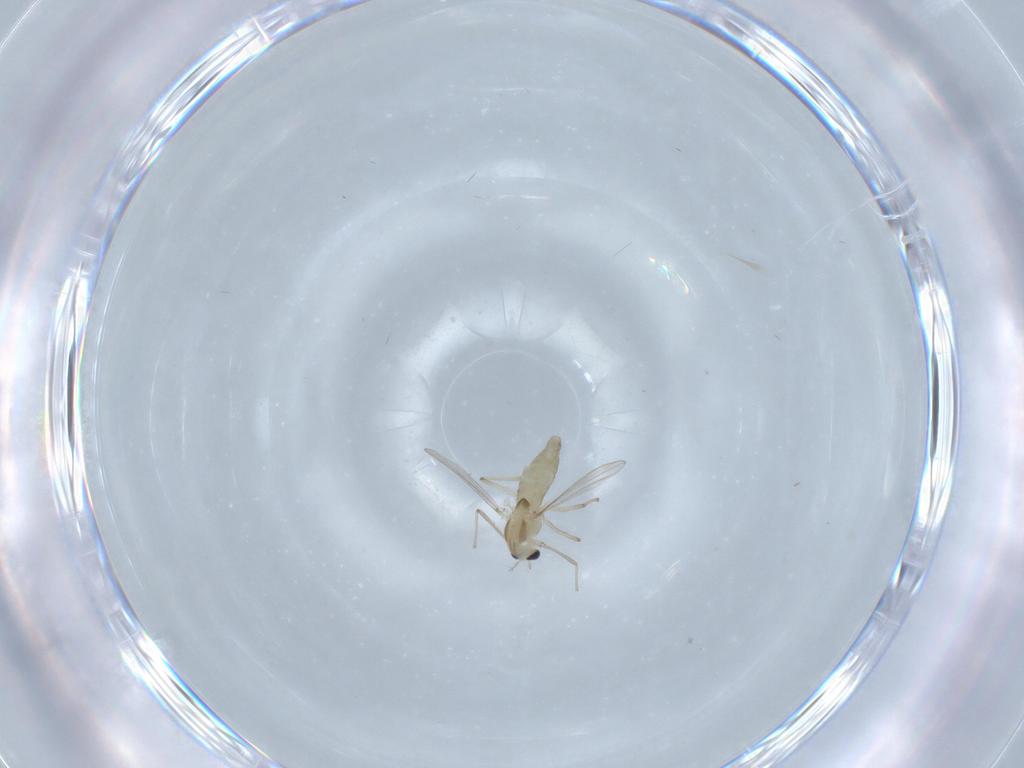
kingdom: Animalia
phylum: Arthropoda
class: Insecta
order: Diptera
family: Chironomidae
